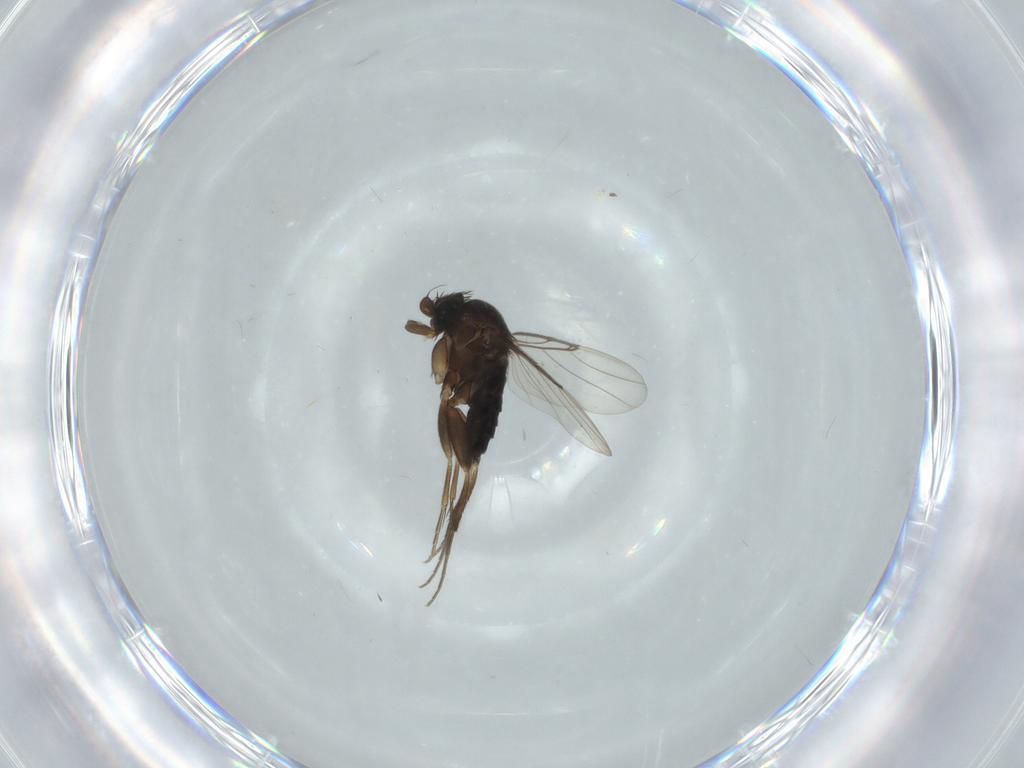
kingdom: Animalia
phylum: Arthropoda
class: Insecta
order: Diptera
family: Phoridae
